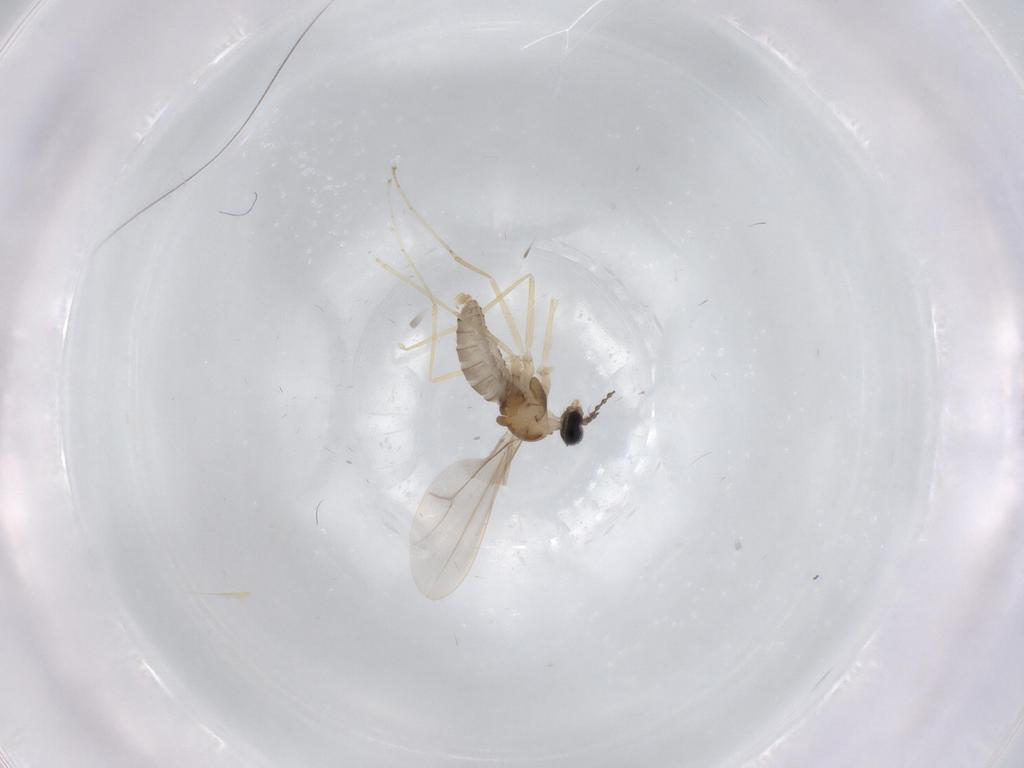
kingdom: Animalia
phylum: Arthropoda
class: Insecta
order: Diptera
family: Cecidomyiidae
